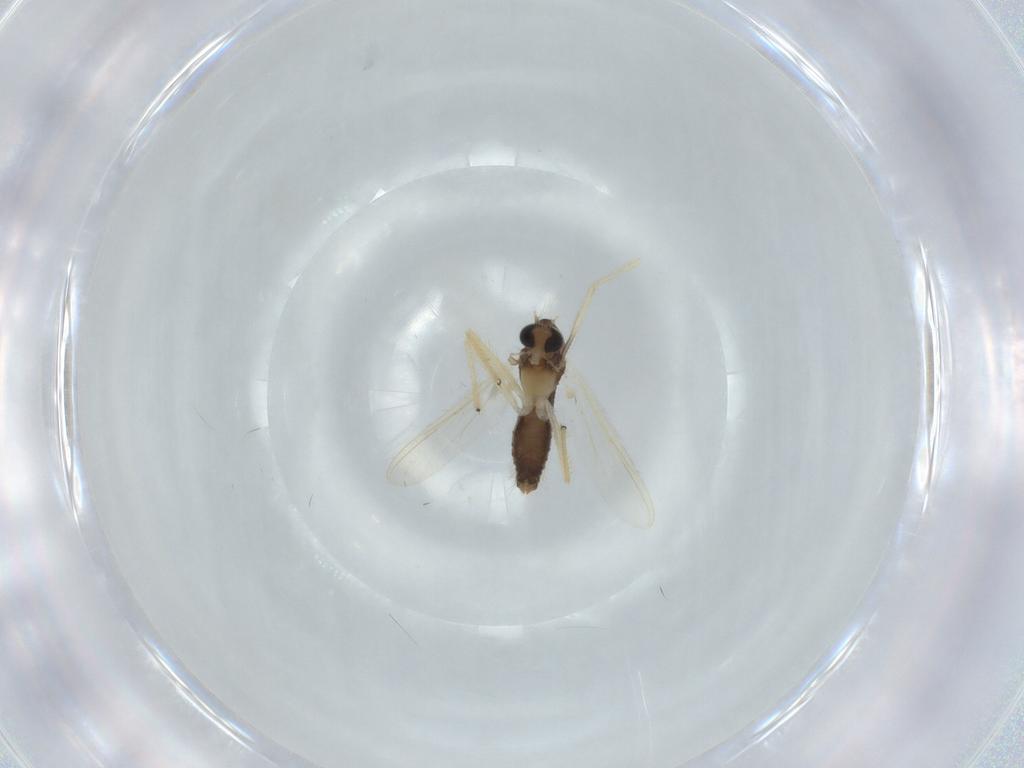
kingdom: Animalia
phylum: Arthropoda
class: Insecta
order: Diptera
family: Chironomidae
